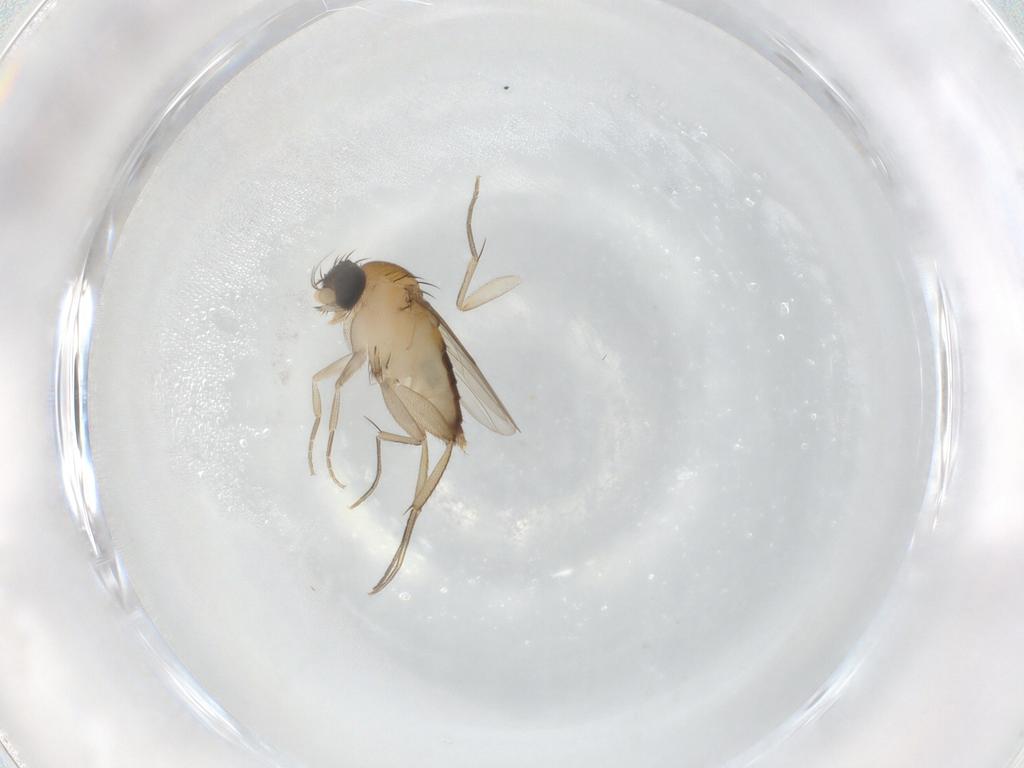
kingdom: Animalia
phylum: Arthropoda
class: Insecta
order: Diptera
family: Phoridae
